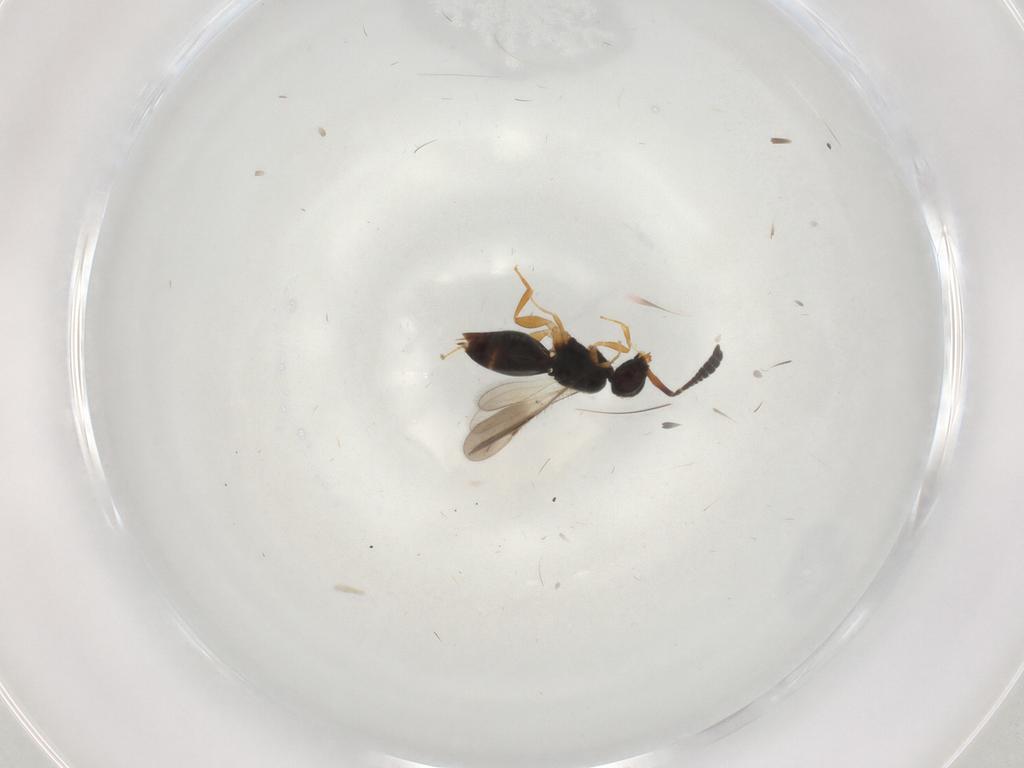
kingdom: Animalia
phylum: Arthropoda
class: Insecta
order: Hymenoptera
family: Scelionidae
